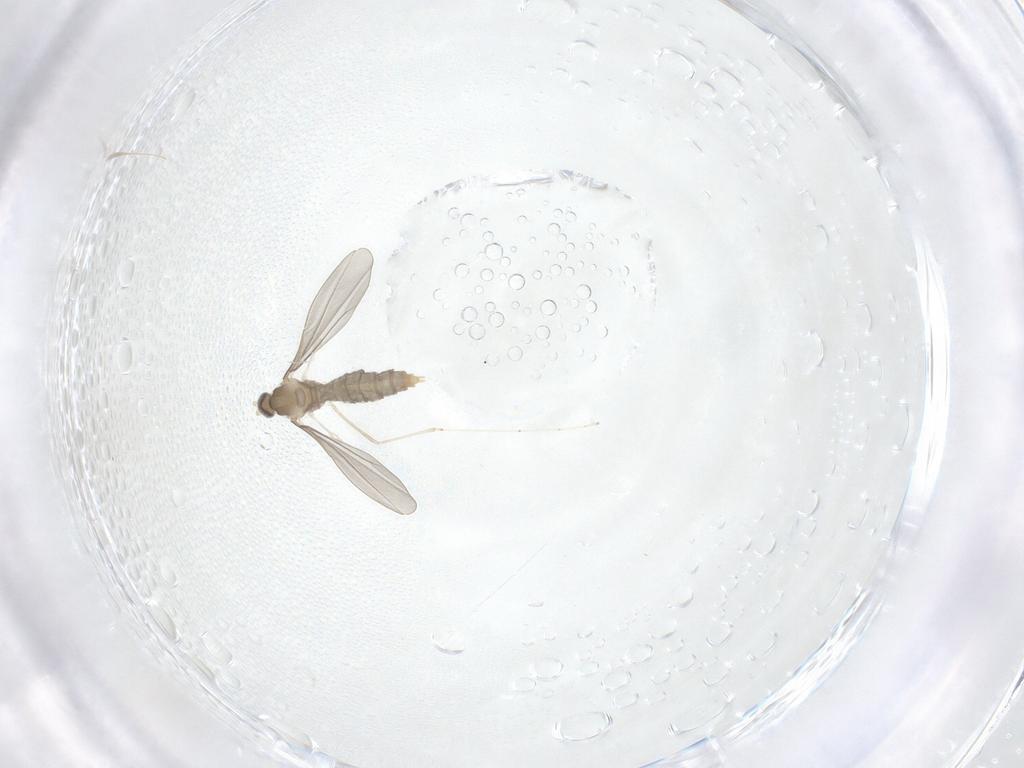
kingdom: Animalia
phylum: Arthropoda
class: Insecta
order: Diptera
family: Cecidomyiidae
